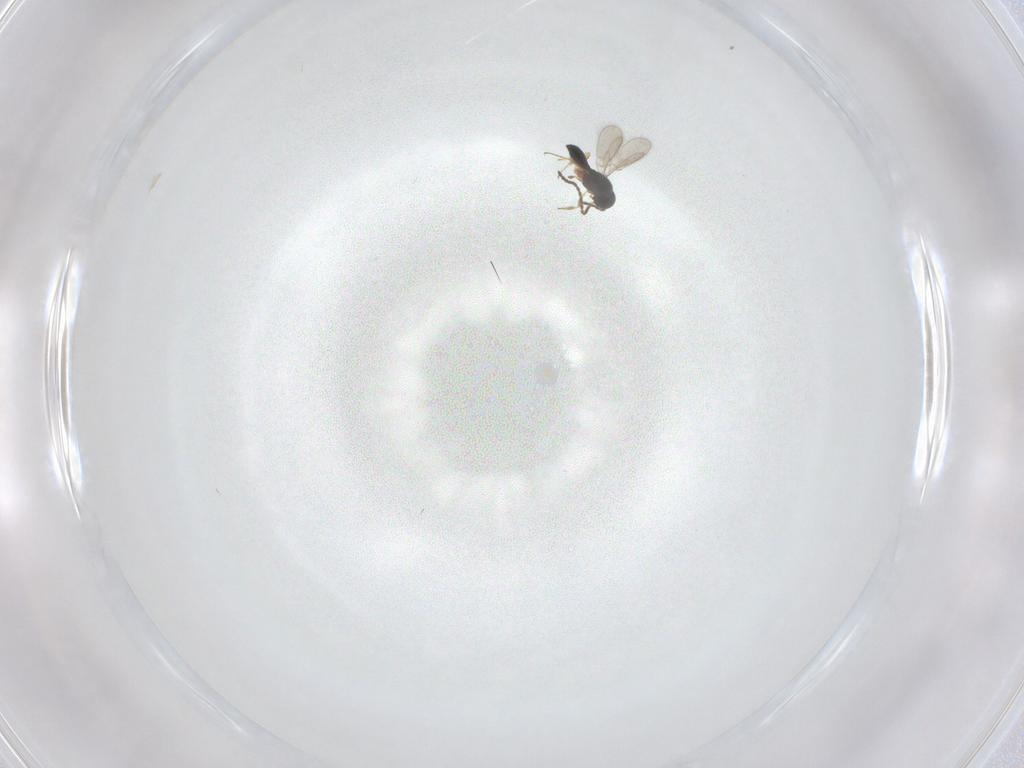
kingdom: Animalia
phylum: Arthropoda
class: Insecta
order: Hymenoptera
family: Scelionidae
